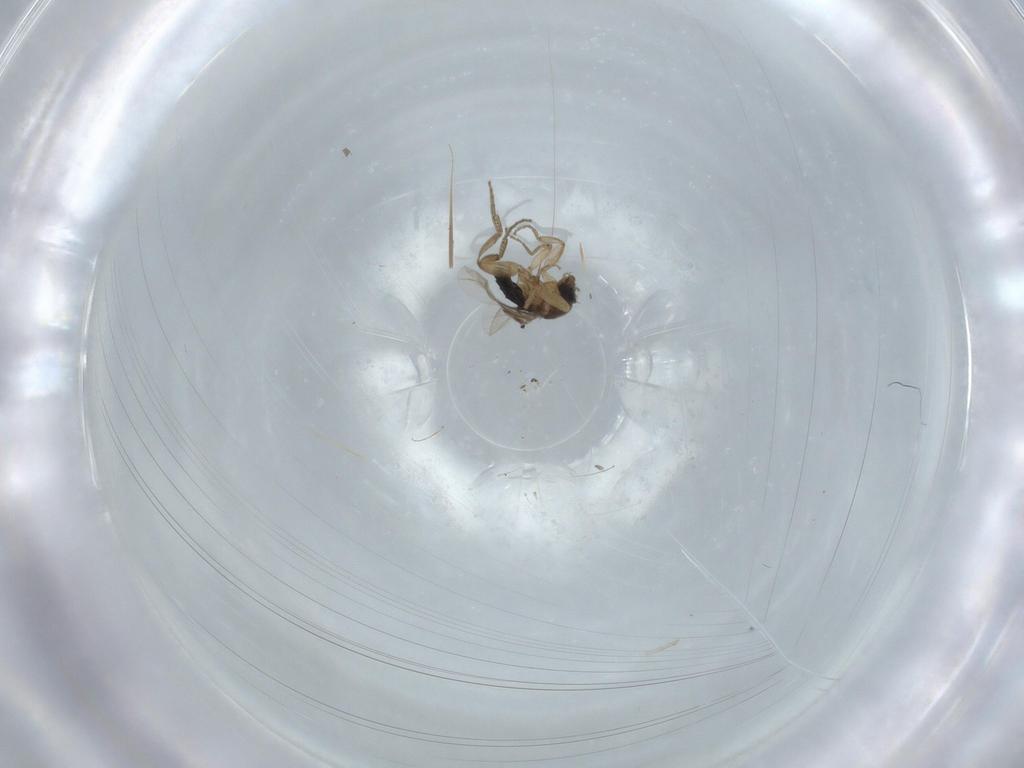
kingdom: Animalia
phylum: Arthropoda
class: Insecta
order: Diptera
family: Phoridae
